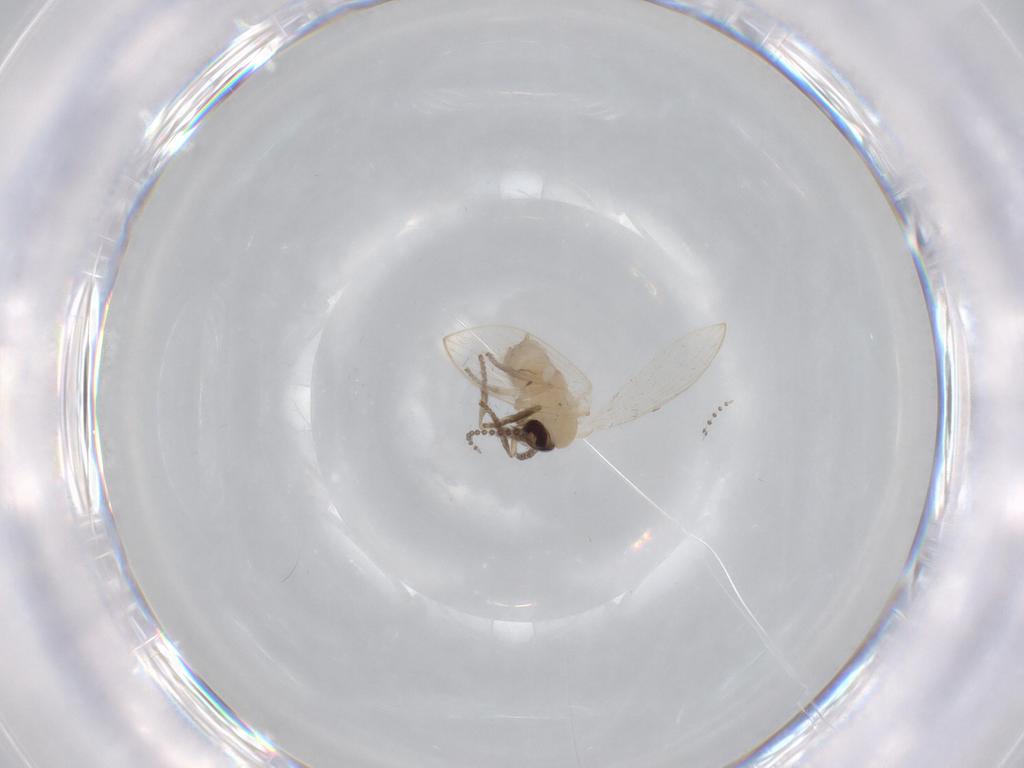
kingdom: Animalia
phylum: Arthropoda
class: Insecta
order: Diptera
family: Psychodidae
